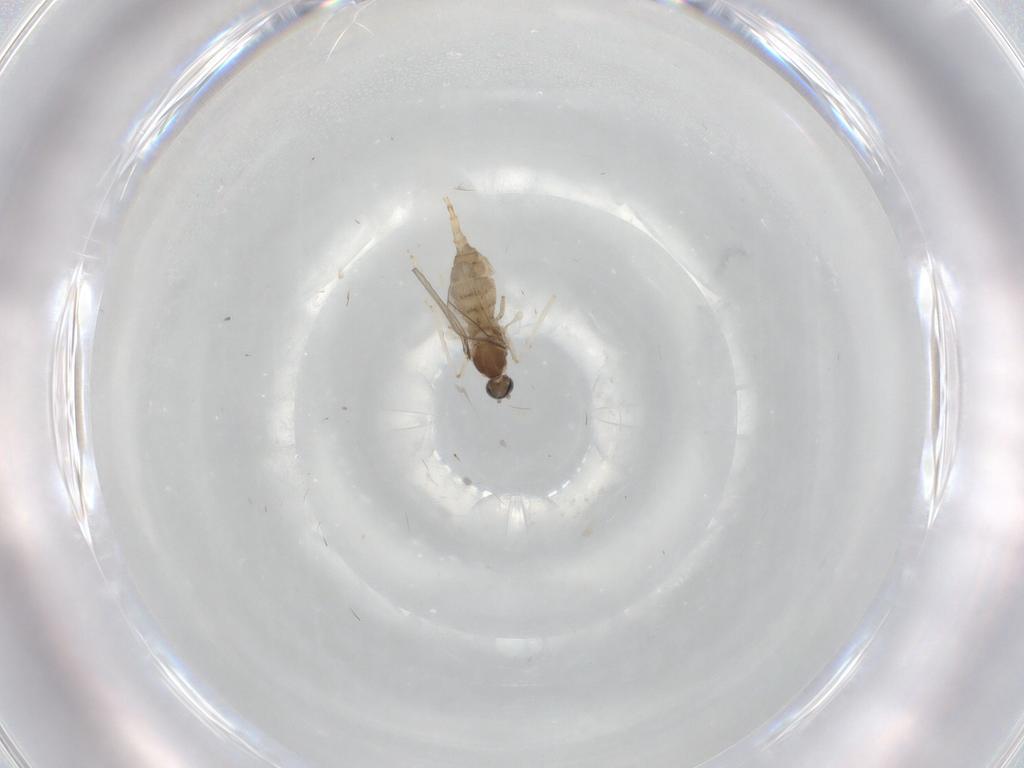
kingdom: Animalia
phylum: Arthropoda
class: Insecta
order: Diptera
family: Cecidomyiidae
